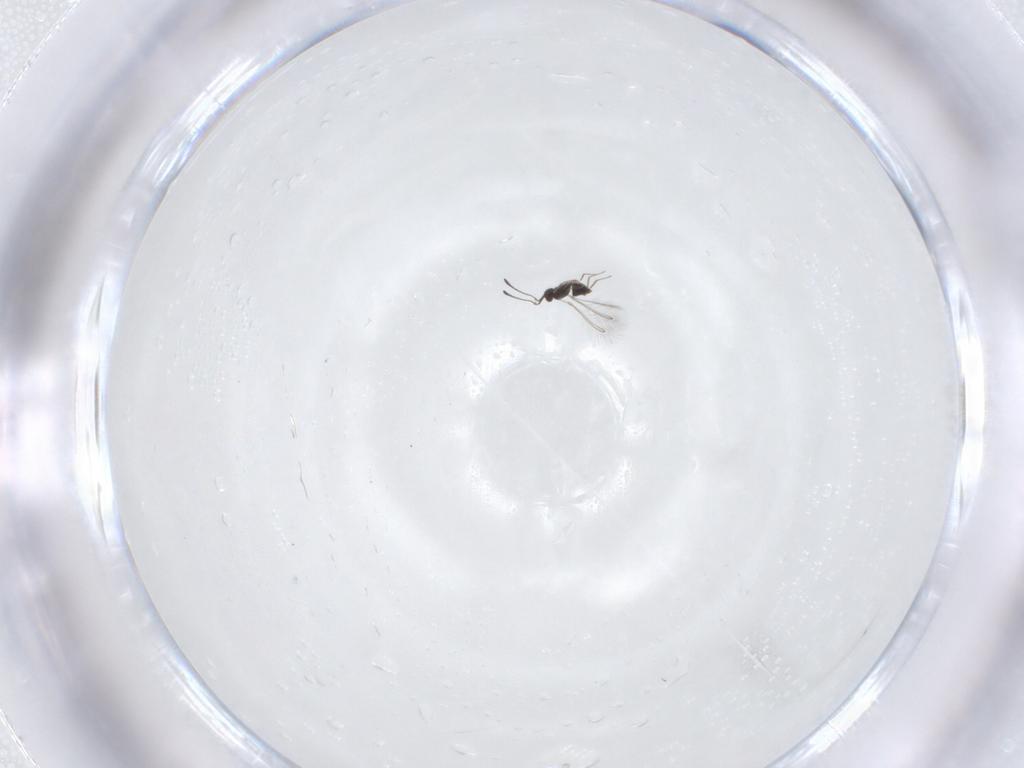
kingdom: Animalia
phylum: Arthropoda
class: Insecta
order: Hymenoptera
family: Mymaridae
